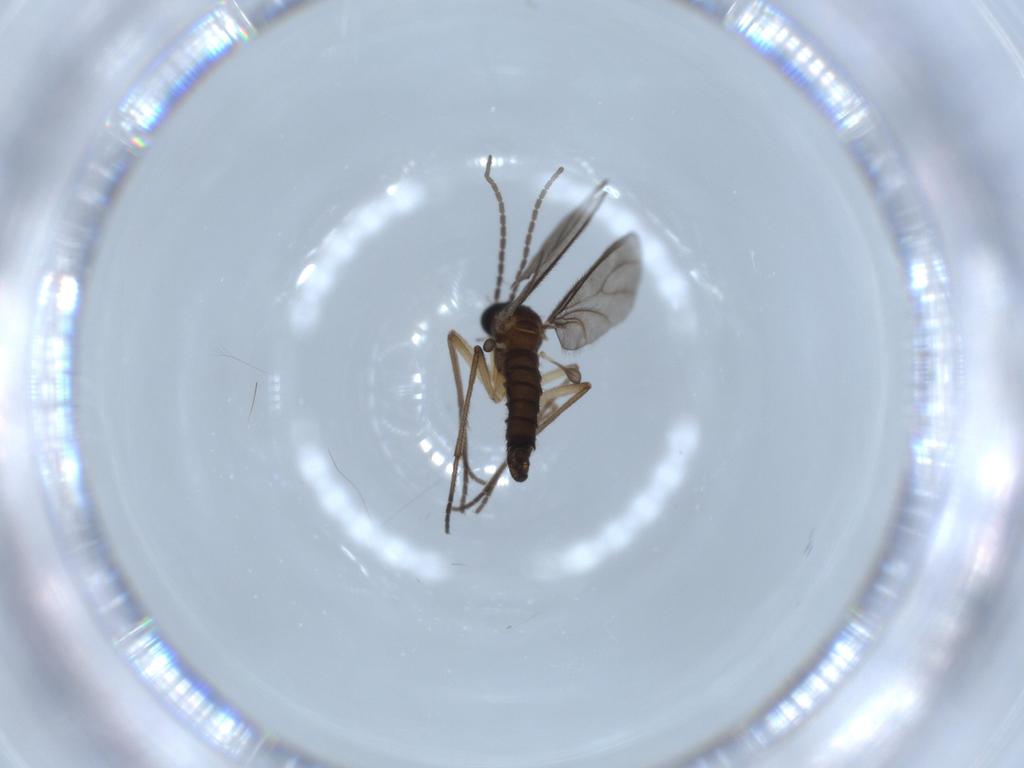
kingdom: Animalia
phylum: Arthropoda
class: Insecta
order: Diptera
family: Sciaridae
